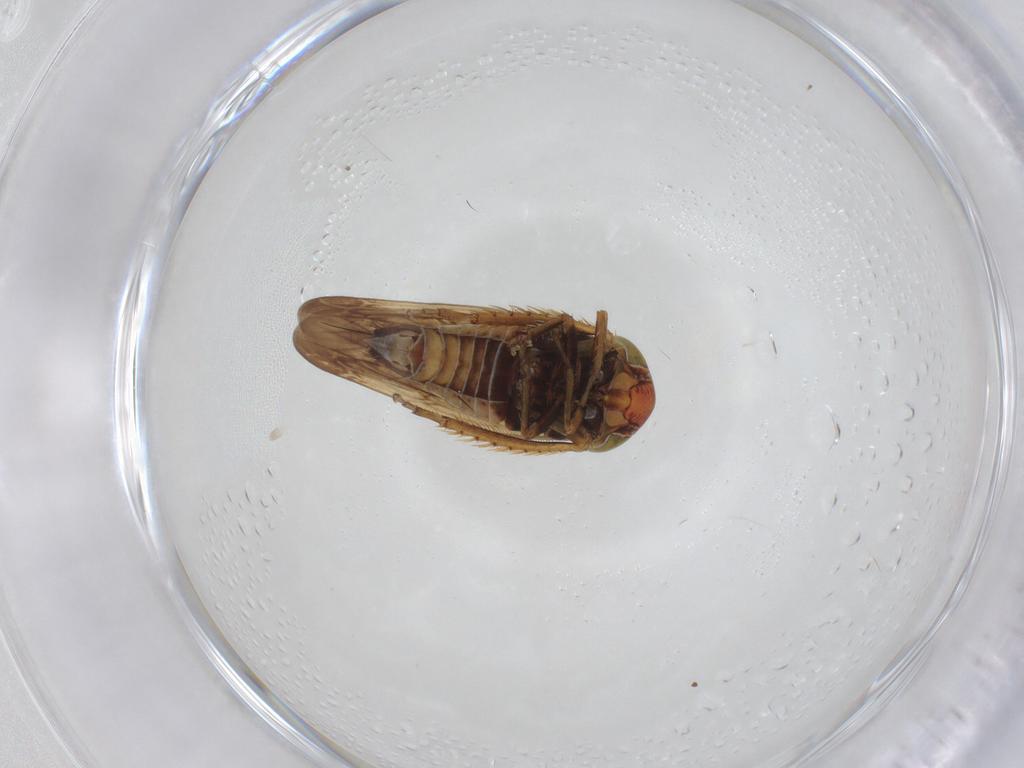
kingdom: Animalia
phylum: Arthropoda
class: Insecta
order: Hemiptera
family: Cicadellidae
